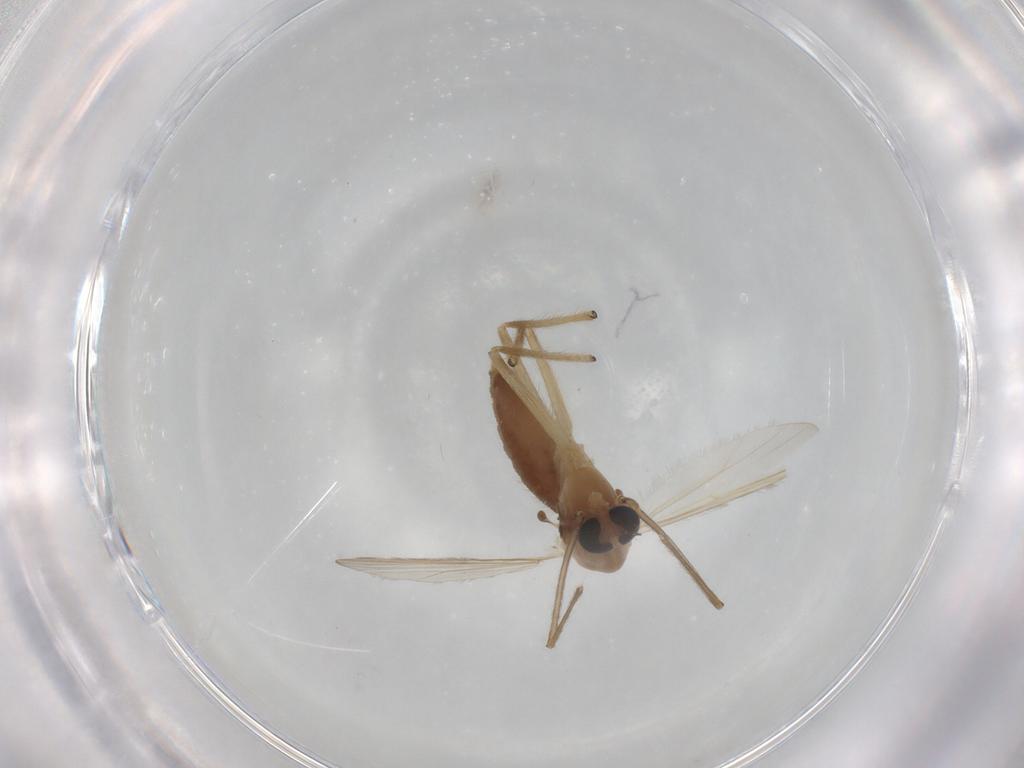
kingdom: Animalia
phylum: Arthropoda
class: Insecta
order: Diptera
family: Chironomidae
